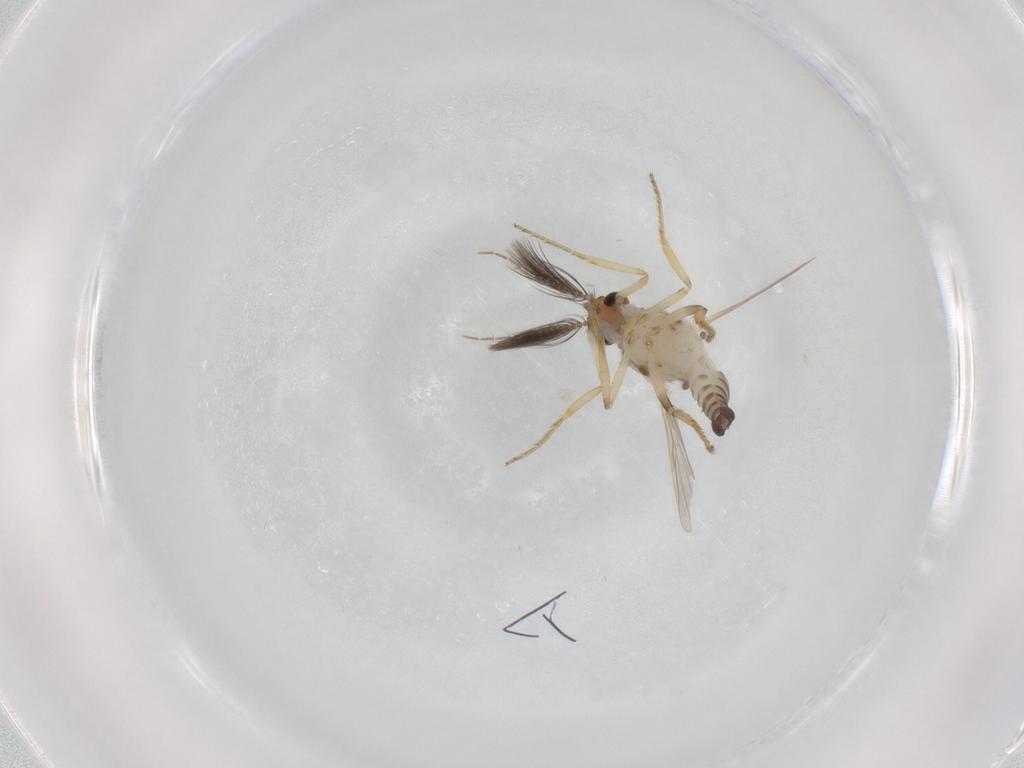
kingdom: Animalia
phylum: Arthropoda
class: Insecta
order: Diptera
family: Ceratopogonidae
